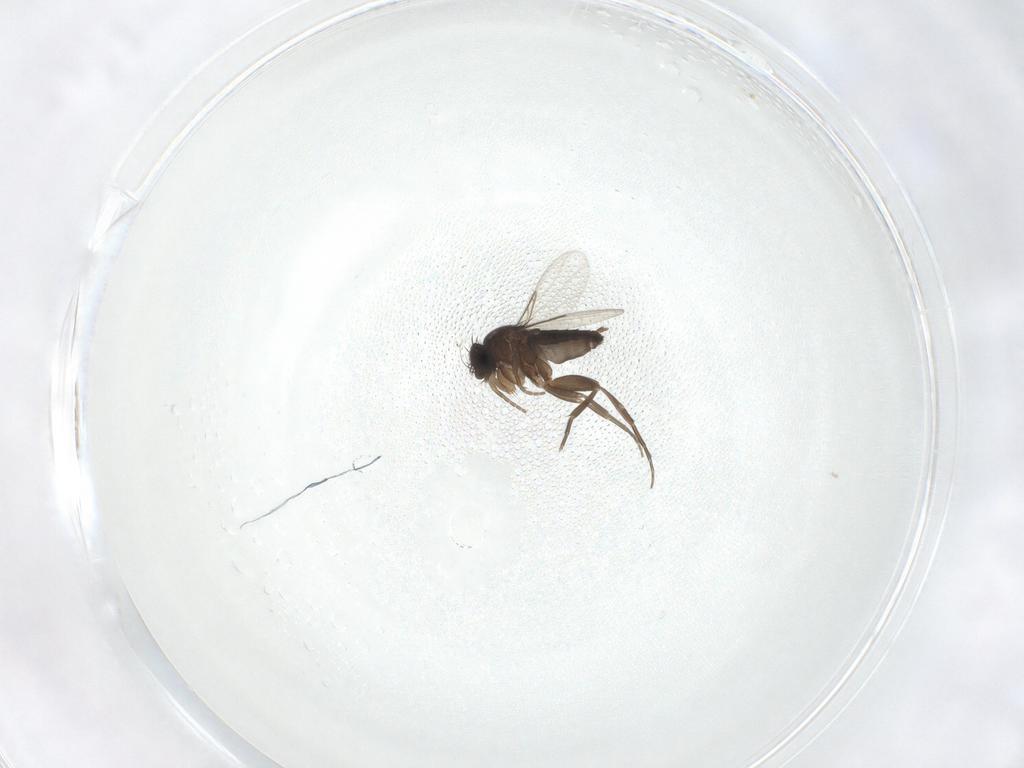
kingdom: Animalia
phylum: Arthropoda
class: Insecta
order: Diptera
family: Phoridae
